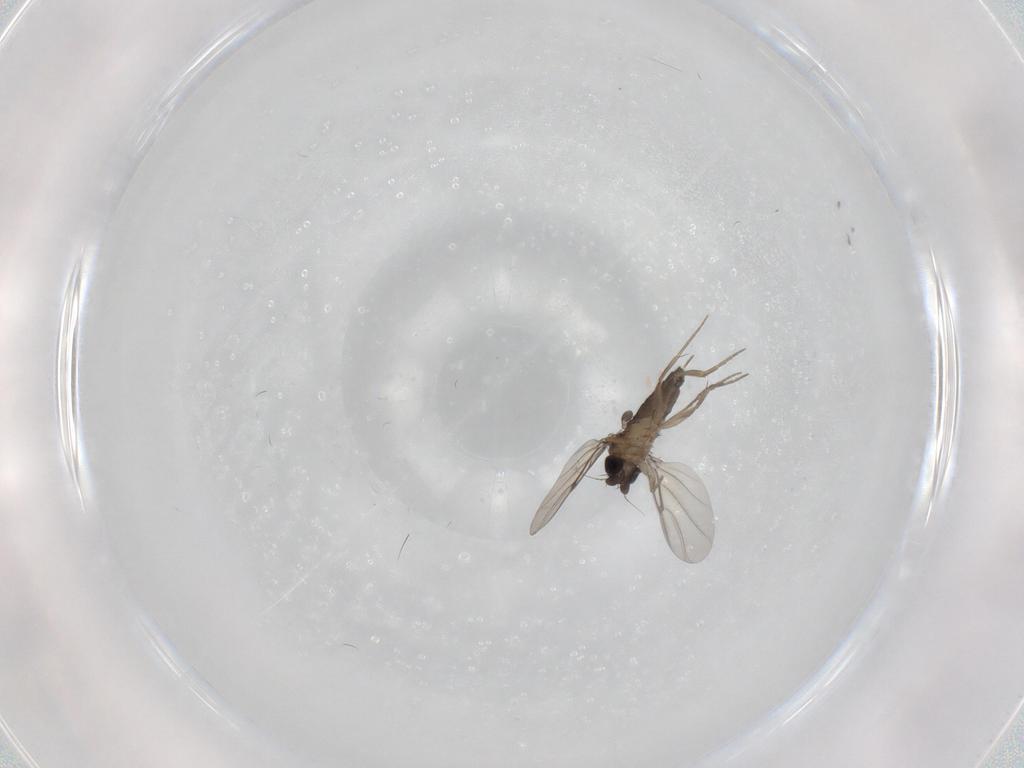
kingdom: Animalia
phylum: Arthropoda
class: Insecta
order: Diptera
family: Phoridae
